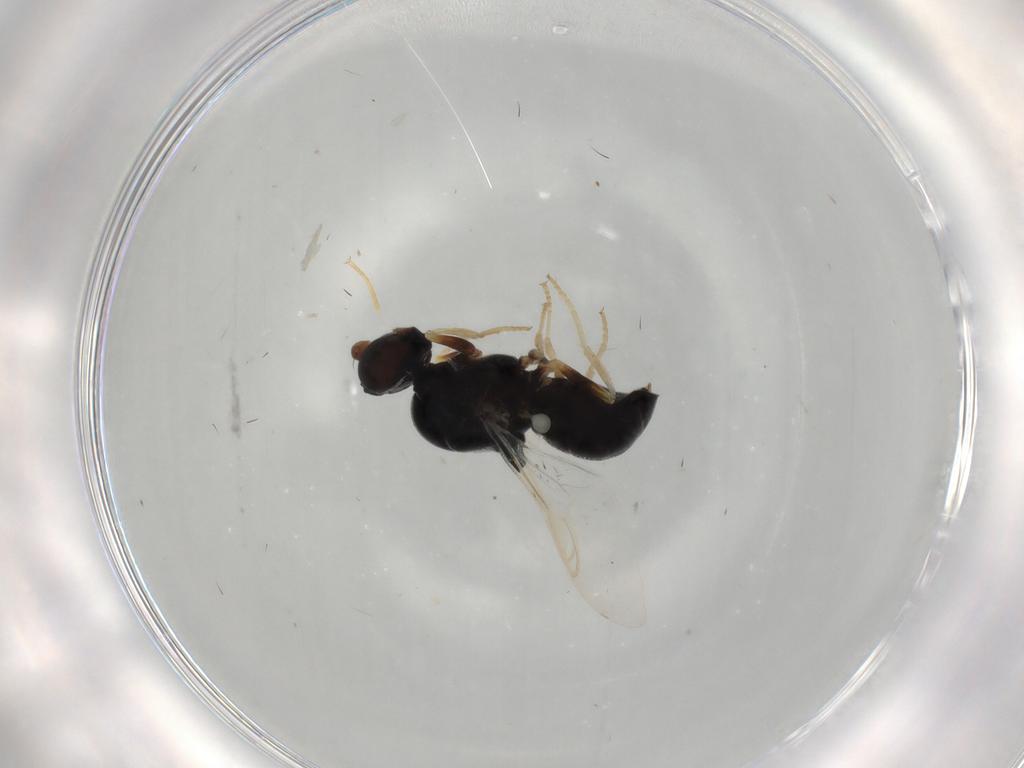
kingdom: Animalia
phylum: Arthropoda
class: Insecta
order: Diptera
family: Stratiomyidae
